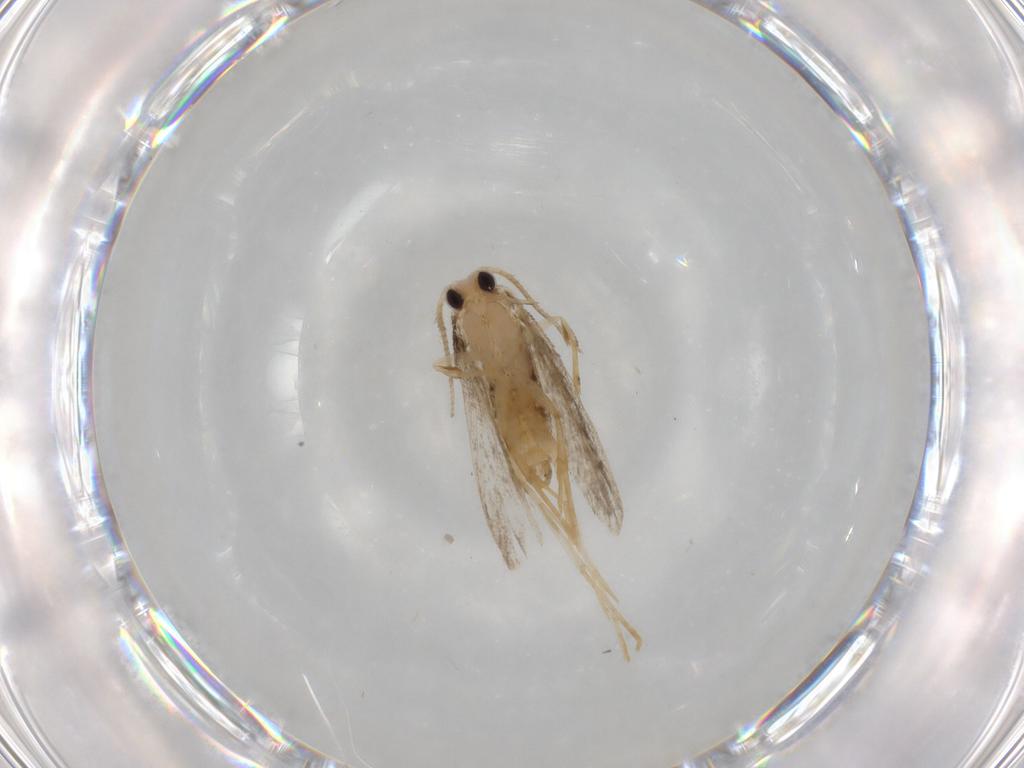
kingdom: Animalia
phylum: Arthropoda
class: Insecta
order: Lepidoptera
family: Psychidae
